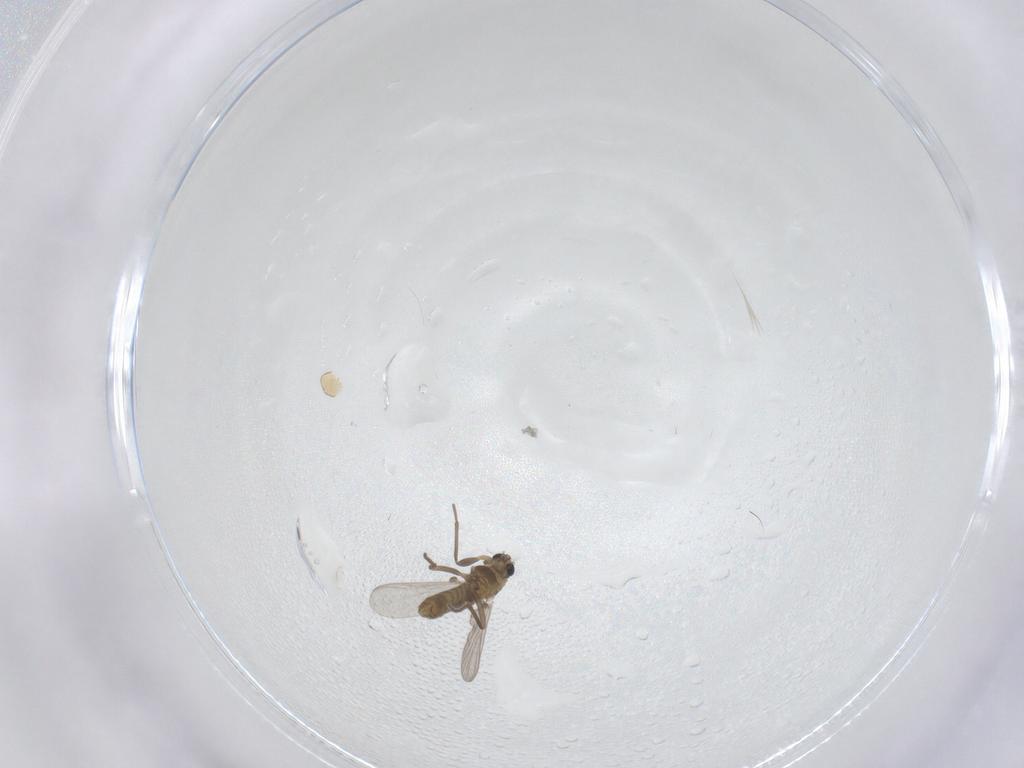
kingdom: Animalia
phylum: Arthropoda
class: Insecta
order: Diptera
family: Chironomidae
